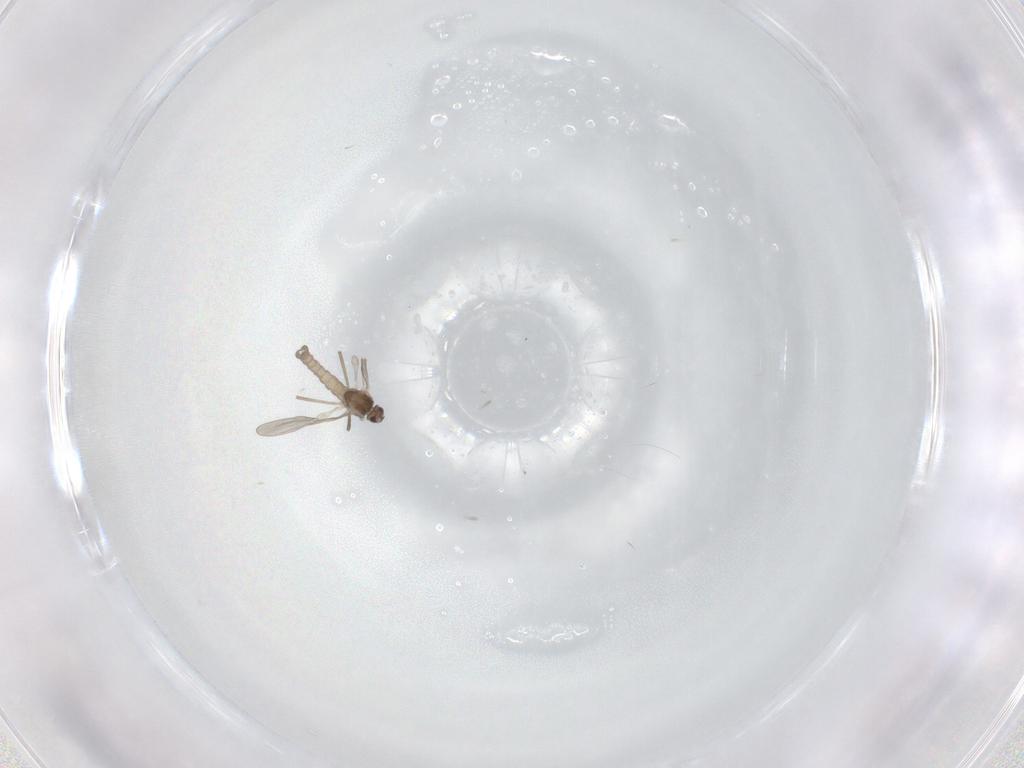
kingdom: Animalia
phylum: Arthropoda
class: Insecta
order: Diptera
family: Cecidomyiidae
